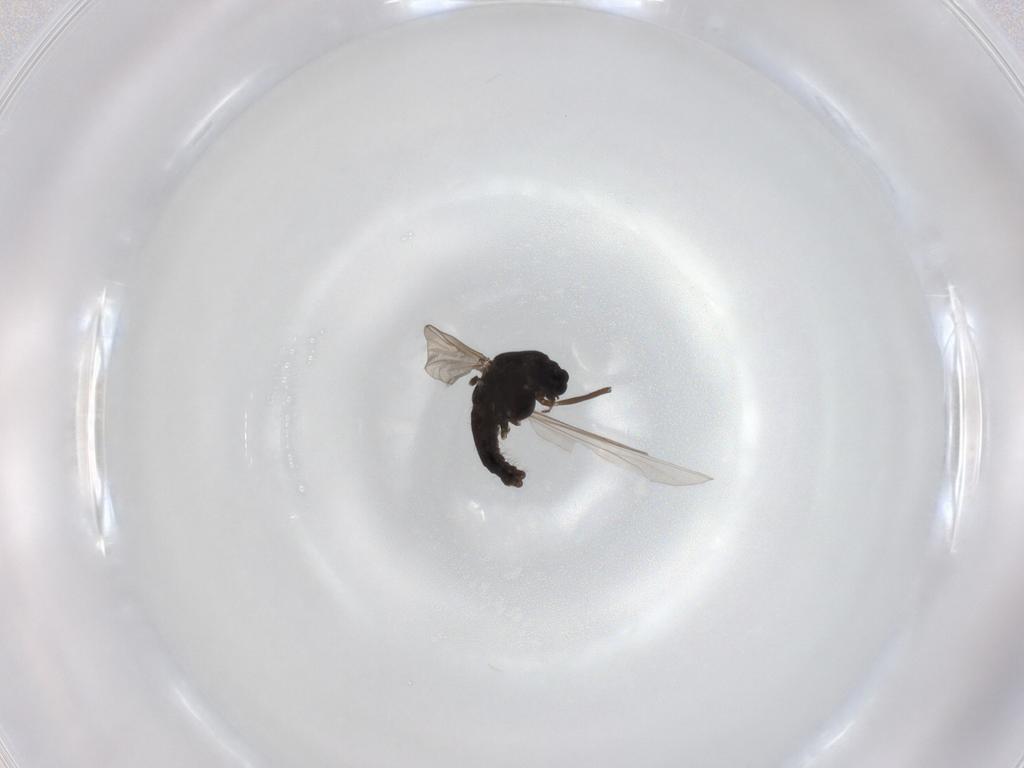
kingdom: Animalia
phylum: Arthropoda
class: Insecta
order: Diptera
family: Chironomidae
